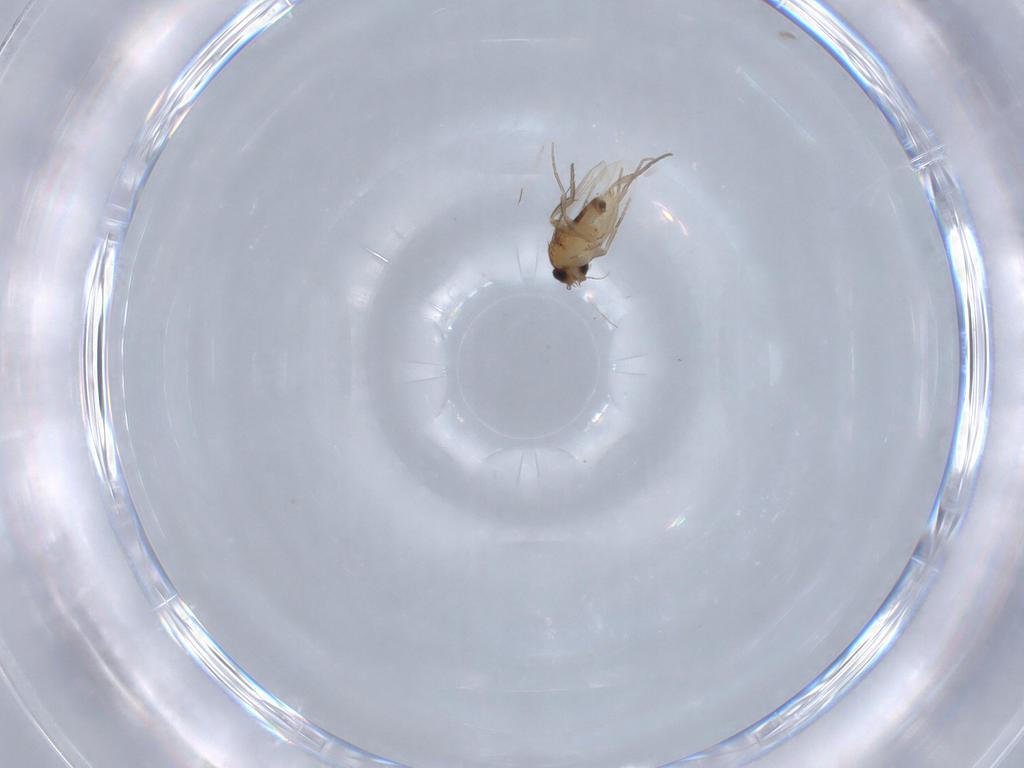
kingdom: Animalia
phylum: Arthropoda
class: Insecta
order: Diptera
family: Phoridae
